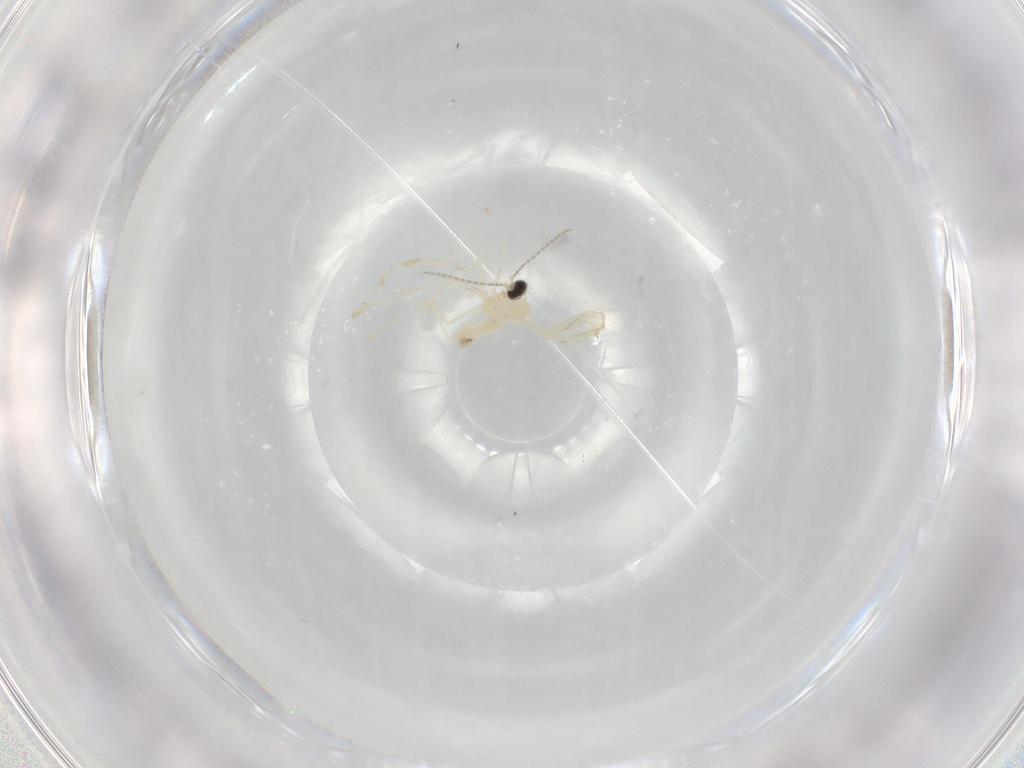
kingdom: Animalia
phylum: Arthropoda
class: Insecta
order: Diptera
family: Cecidomyiidae
